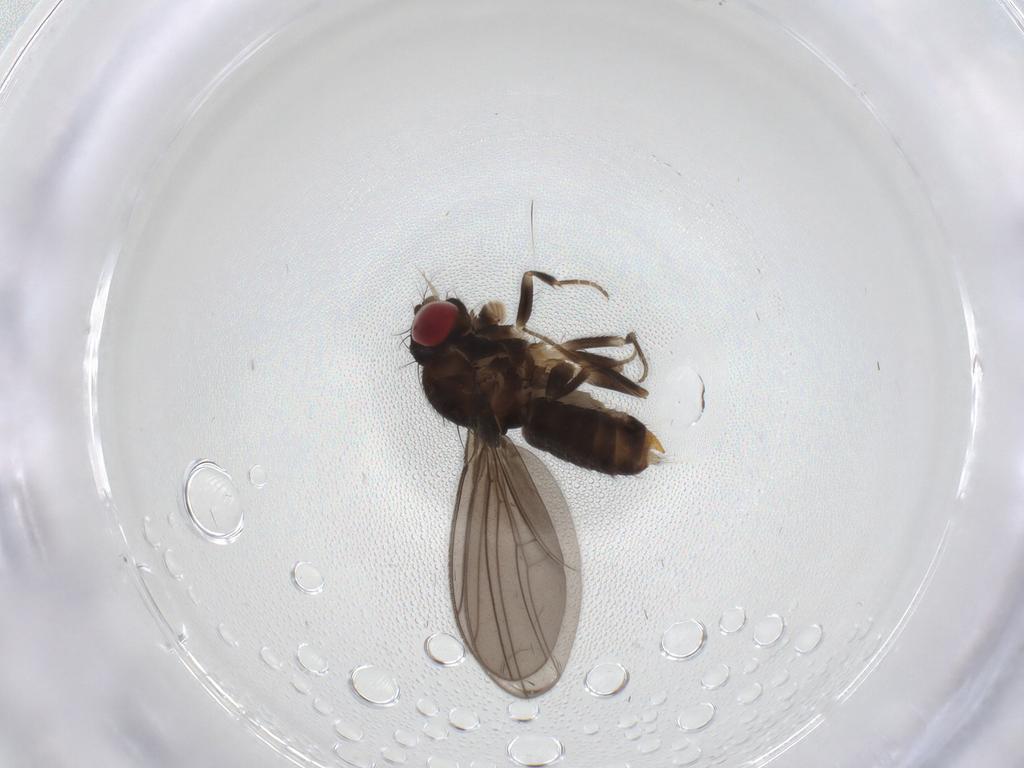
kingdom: Animalia
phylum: Arthropoda
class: Insecta
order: Diptera
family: Drosophilidae
